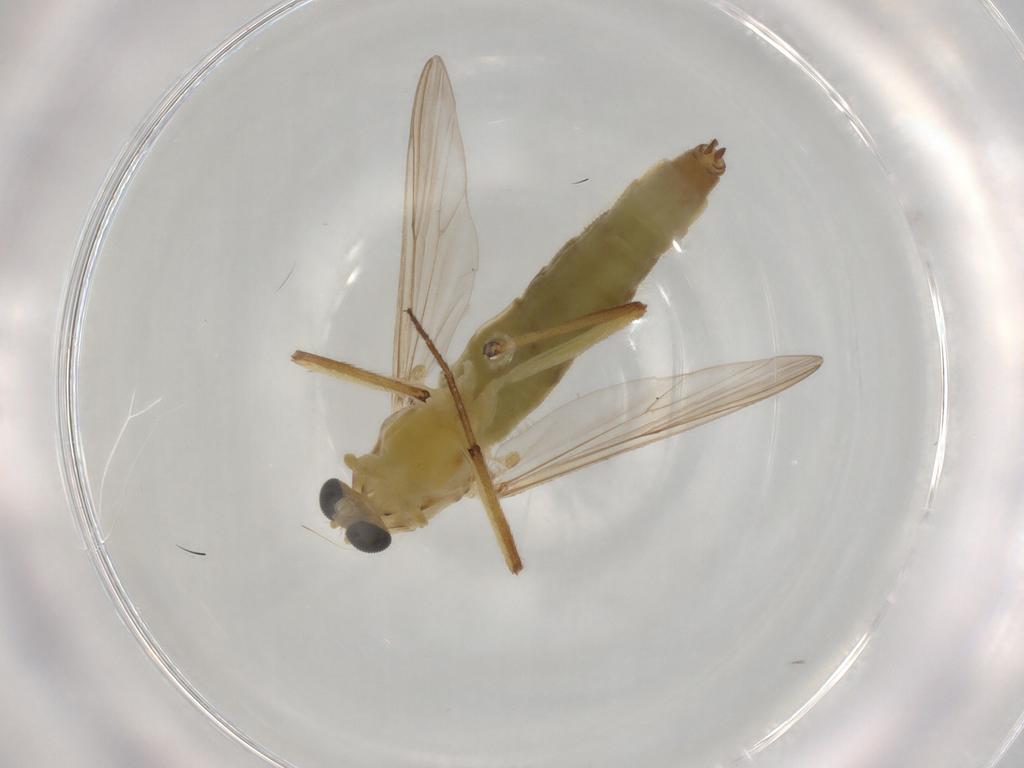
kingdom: Animalia
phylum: Arthropoda
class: Insecta
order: Diptera
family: Chironomidae
